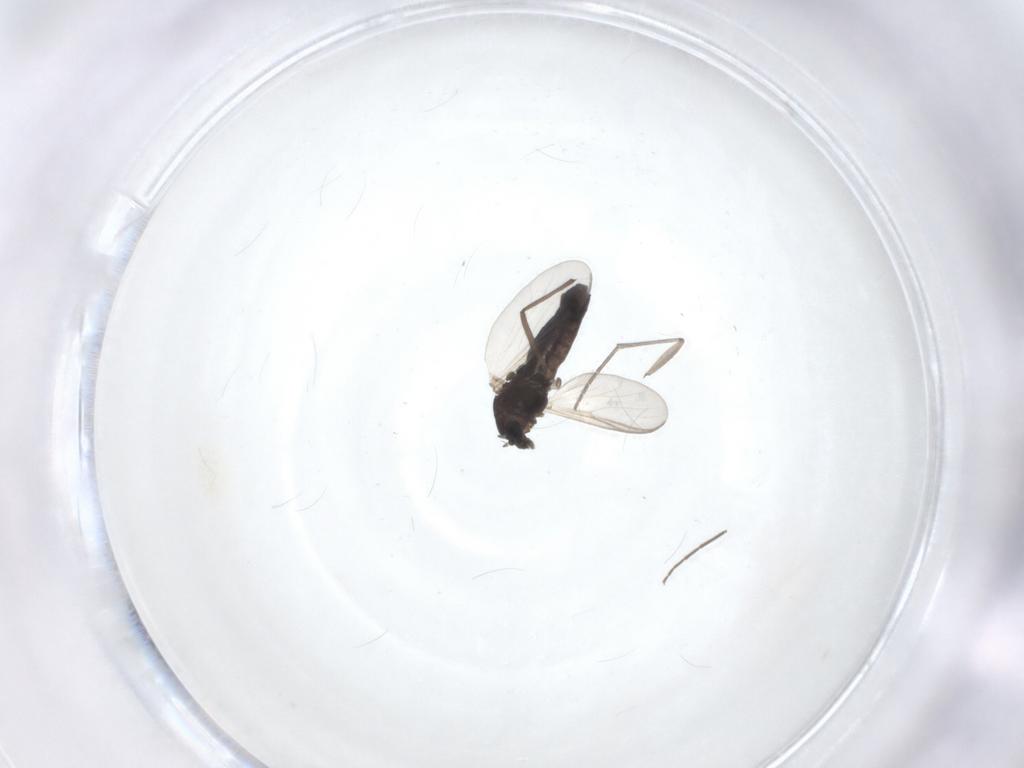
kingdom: Animalia
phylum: Arthropoda
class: Insecta
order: Diptera
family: Chironomidae
